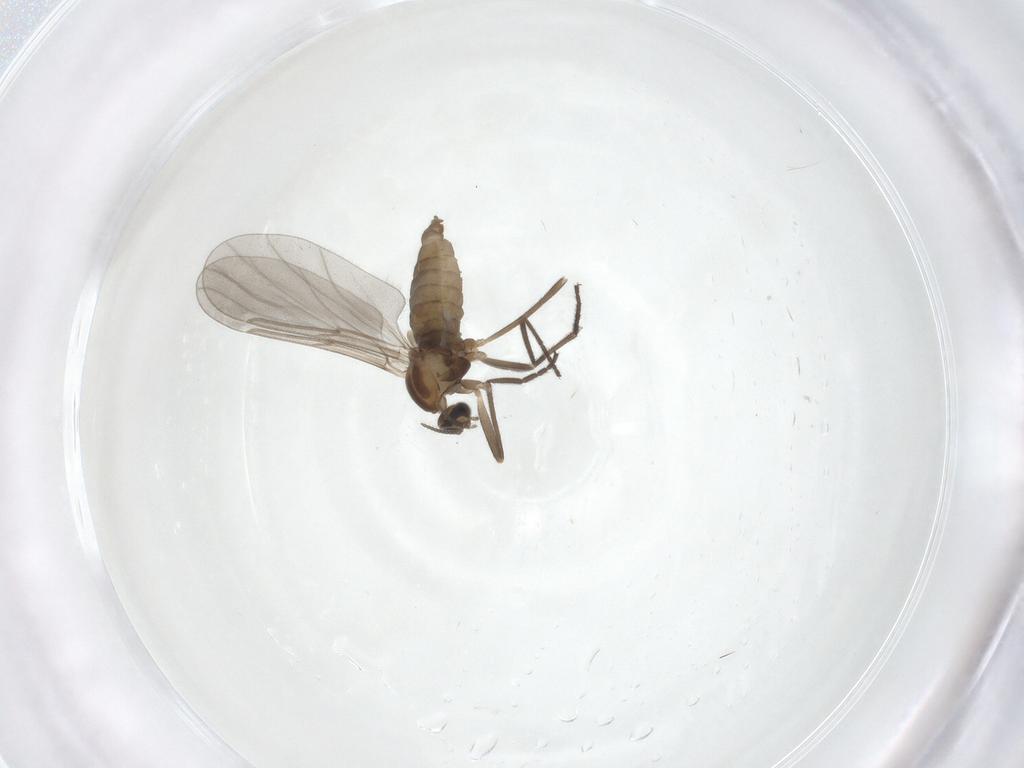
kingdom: Animalia
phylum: Arthropoda
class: Insecta
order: Diptera
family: Cecidomyiidae
